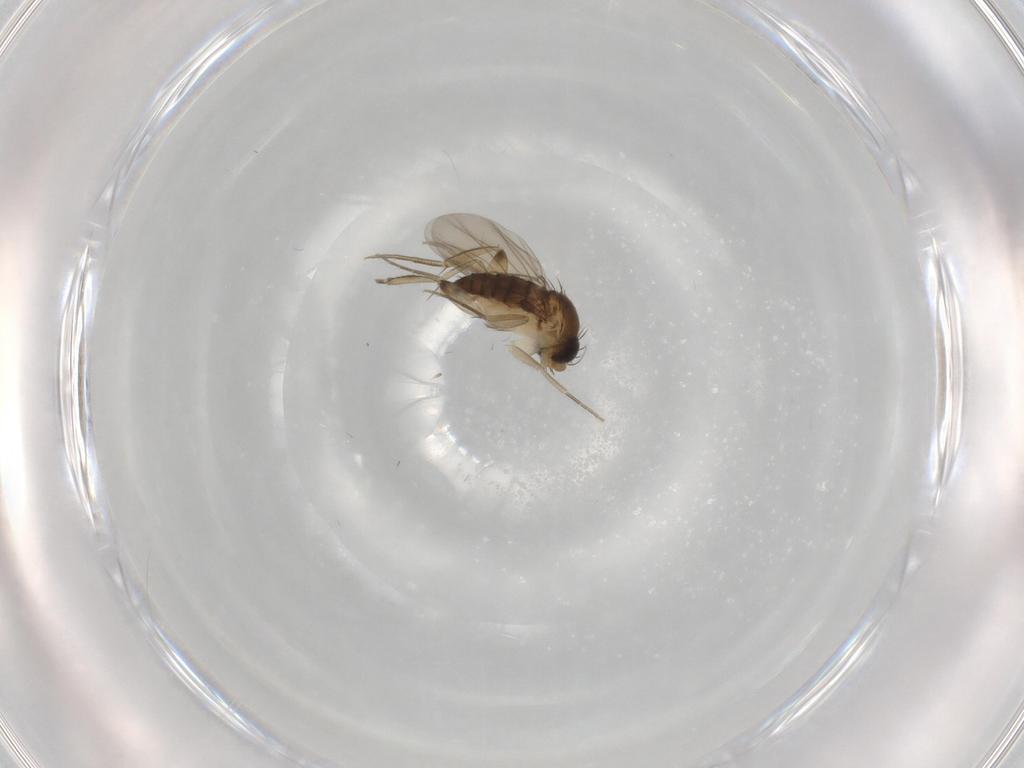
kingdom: Animalia
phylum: Arthropoda
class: Insecta
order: Diptera
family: Phoridae
